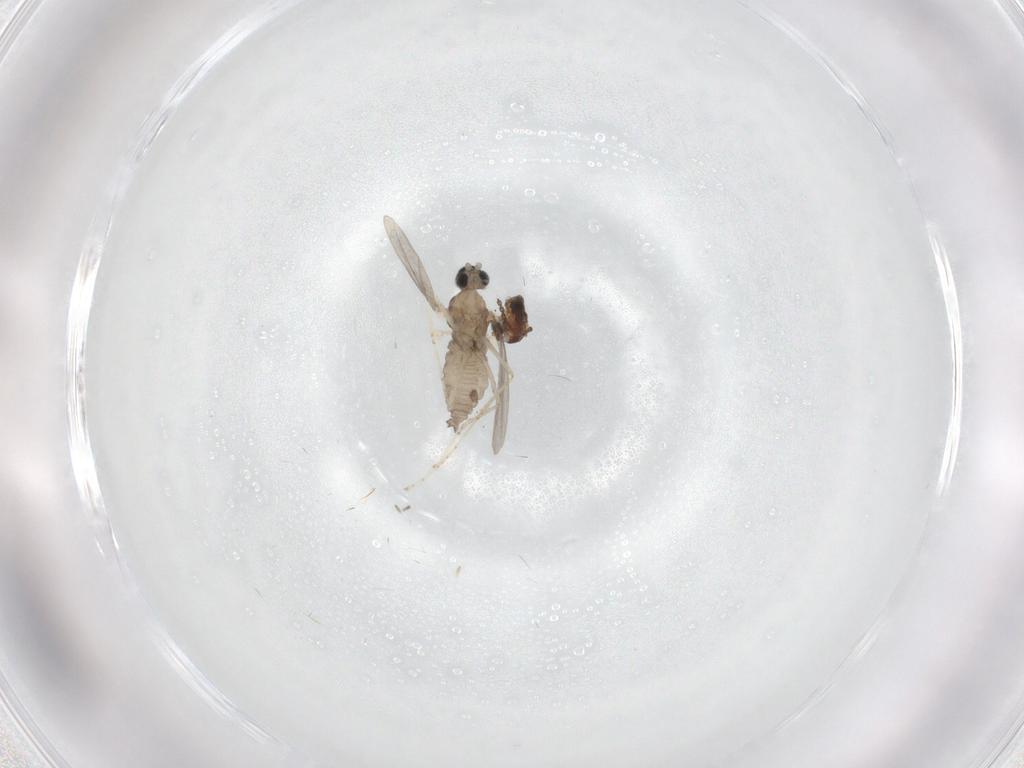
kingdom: Animalia
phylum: Arthropoda
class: Insecta
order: Diptera
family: Cecidomyiidae
